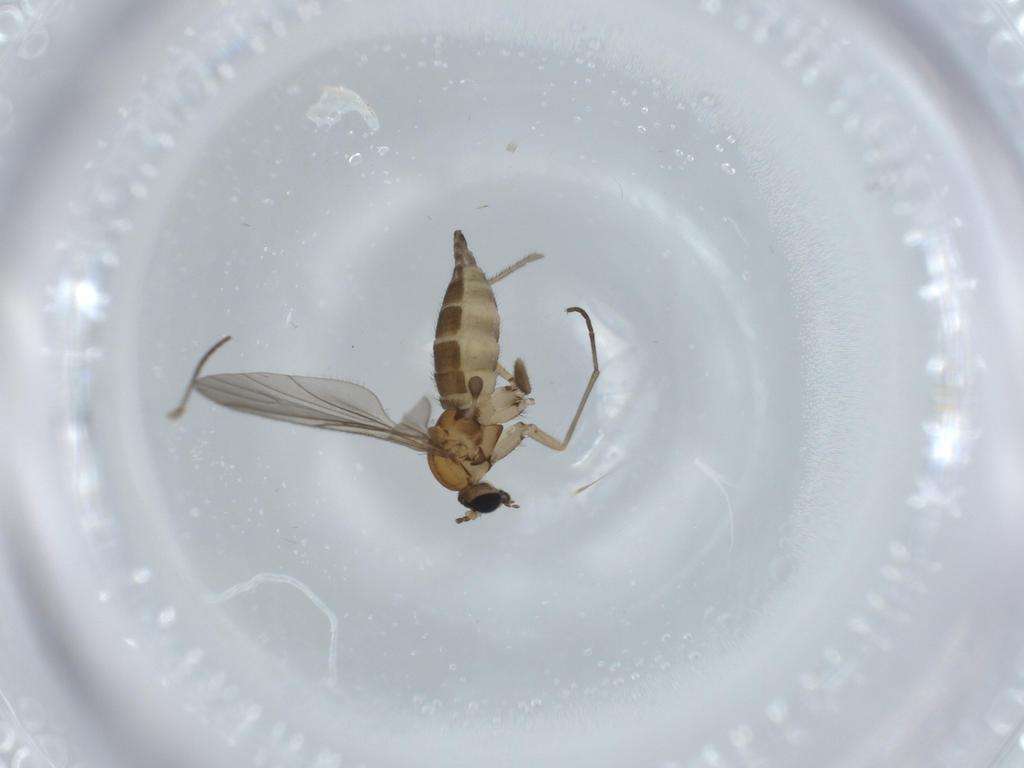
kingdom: Animalia
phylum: Arthropoda
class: Insecta
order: Diptera
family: Sciaridae
